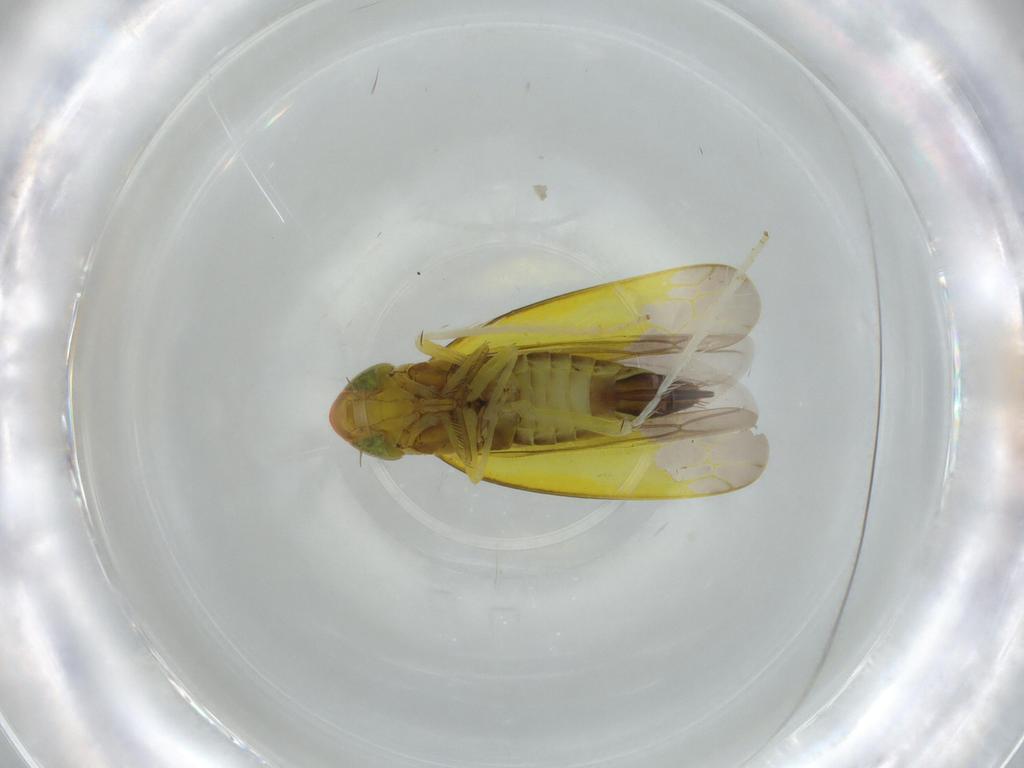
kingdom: Animalia
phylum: Arthropoda
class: Insecta
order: Hemiptera
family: Cicadellidae
